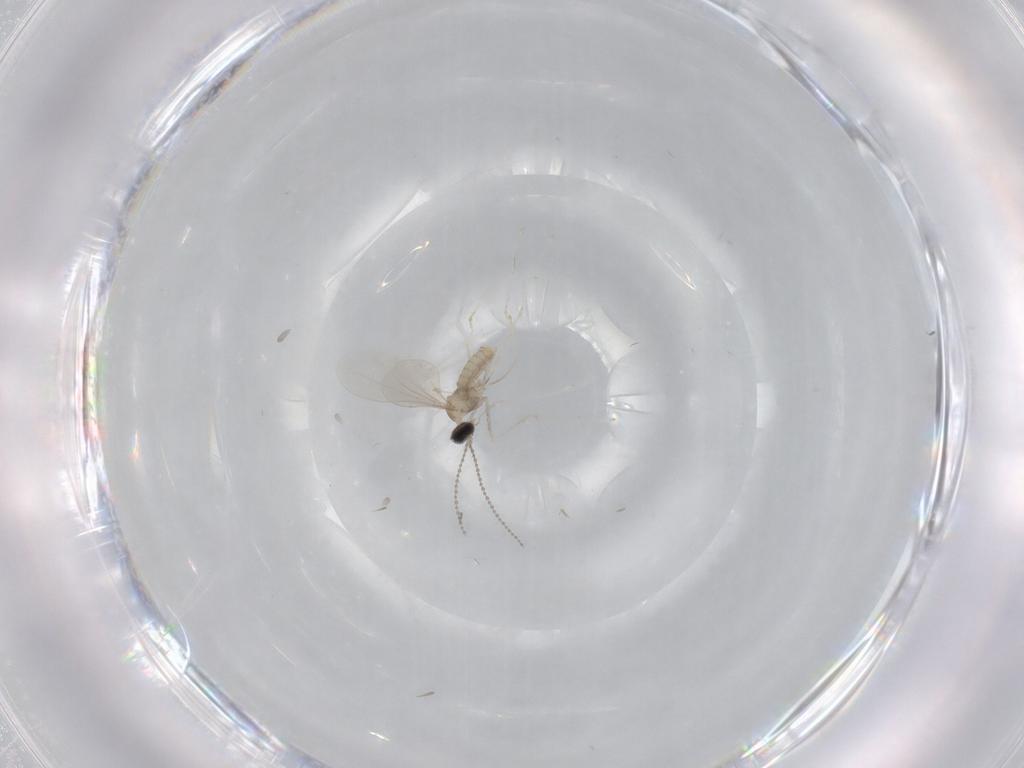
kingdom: Animalia
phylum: Arthropoda
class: Insecta
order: Diptera
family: Cecidomyiidae
